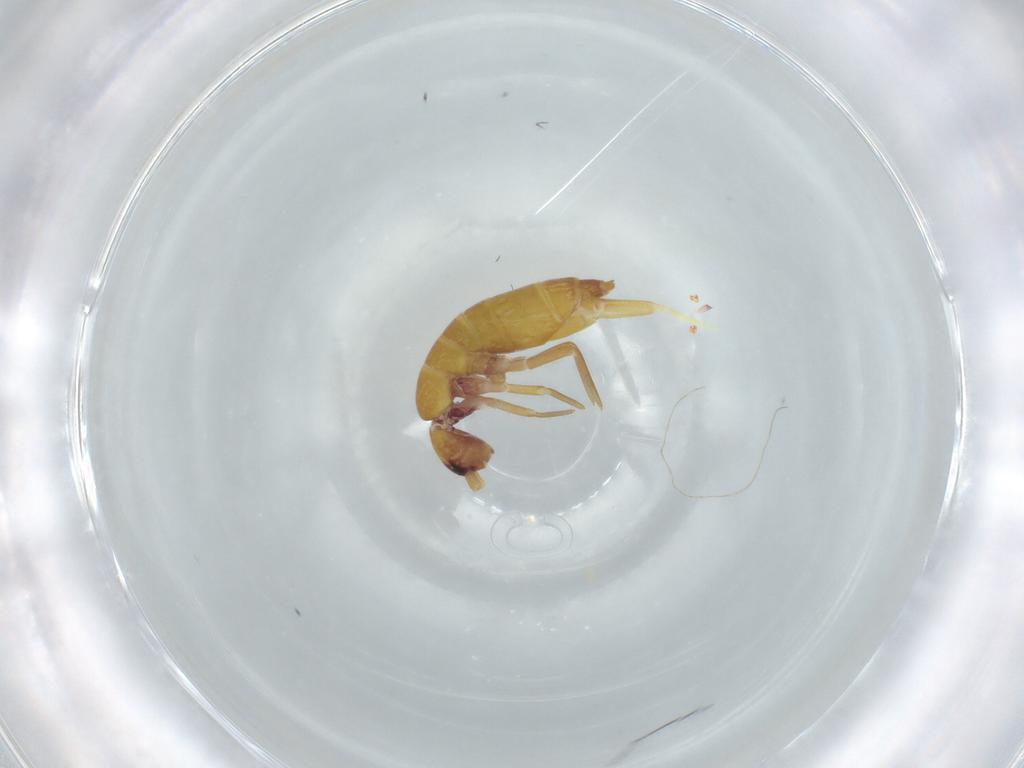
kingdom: Animalia
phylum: Arthropoda
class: Collembola
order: Entomobryomorpha
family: Tomoceridae
